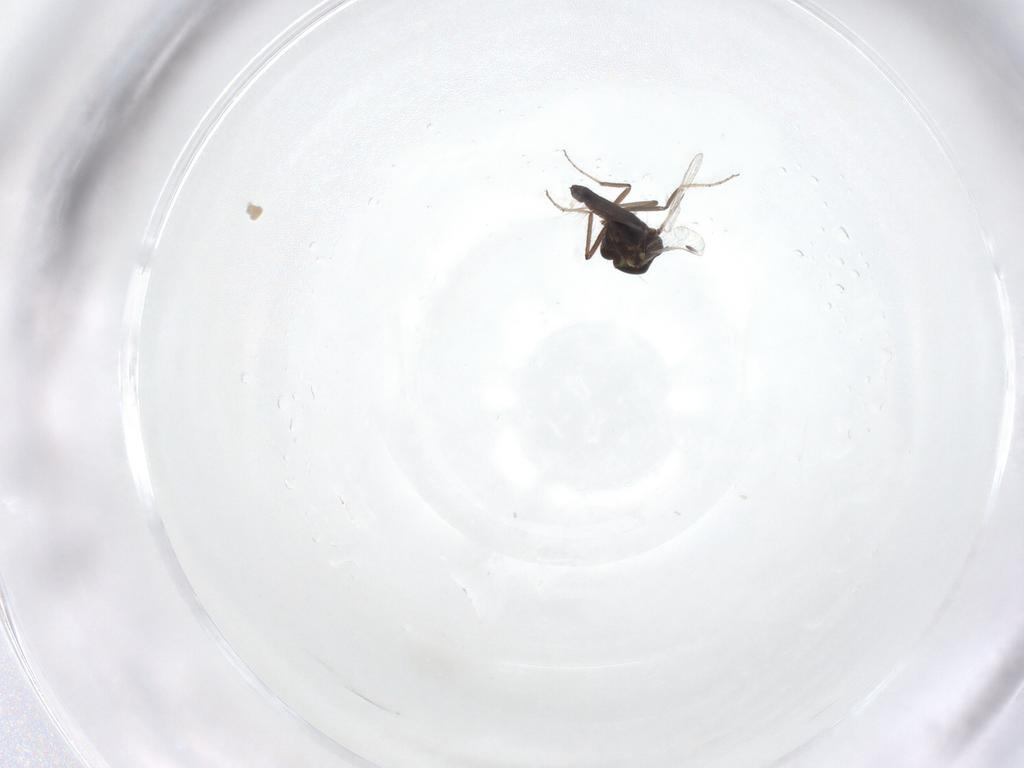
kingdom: Animalia
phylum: Arthropoda
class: Insecta
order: Diptera
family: Ceratopogonidae
